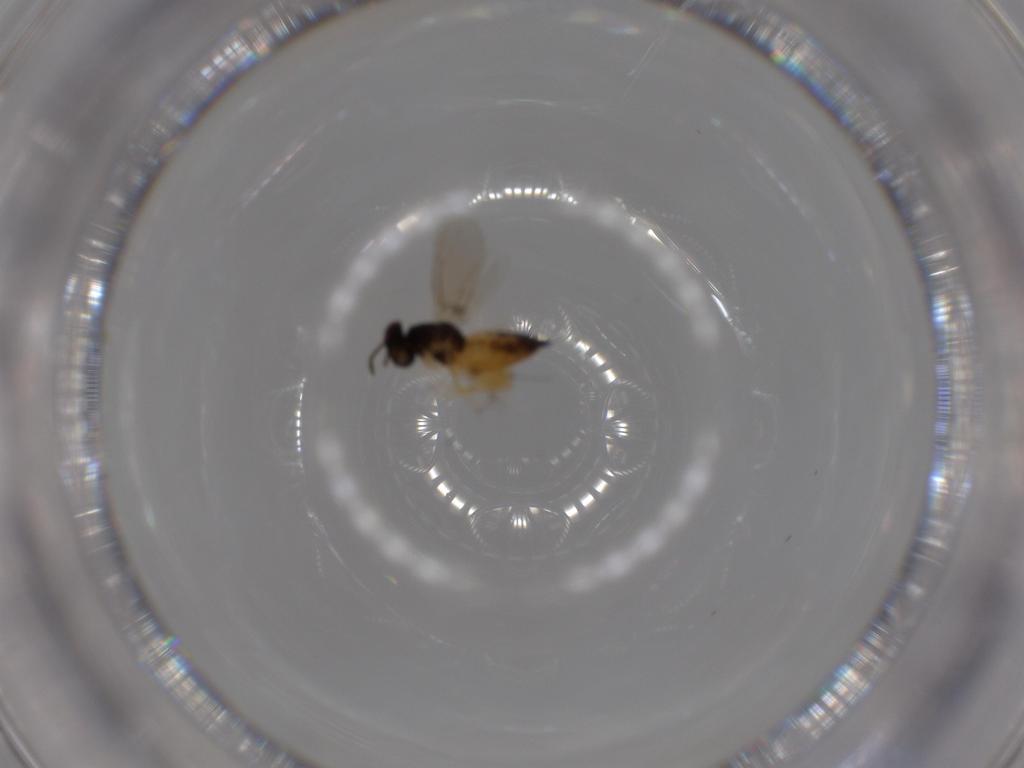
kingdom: Animalia
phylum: Arthropoda
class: Insecta
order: Hymenoptera
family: Eulophidae
